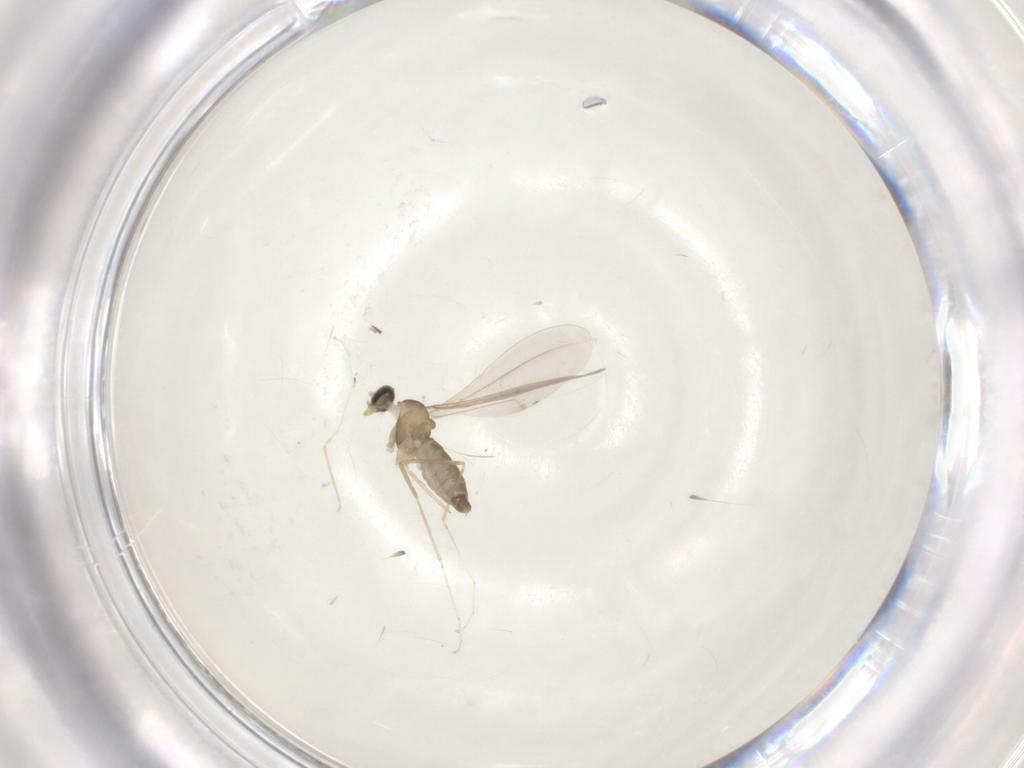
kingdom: Animalia
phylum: Arthropoda
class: Insecta
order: Diptera
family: Cecidomyiidae
